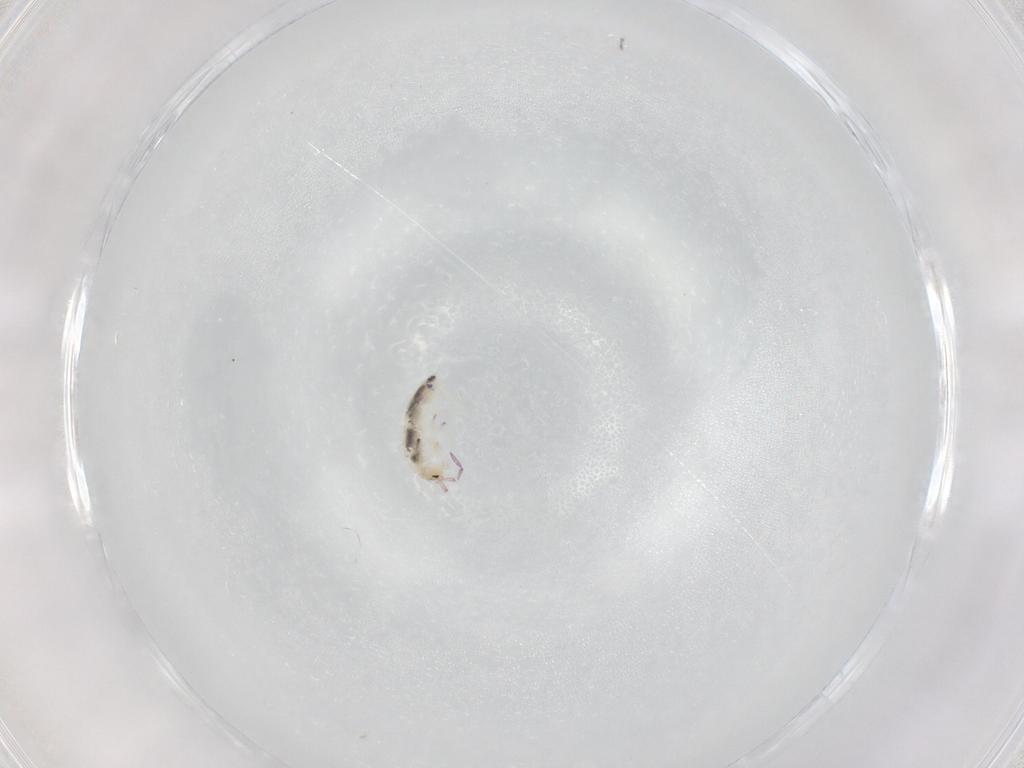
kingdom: Animalia
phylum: Arthropoda
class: Collembola
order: Entomobryomorpha
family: Entomobryidae
